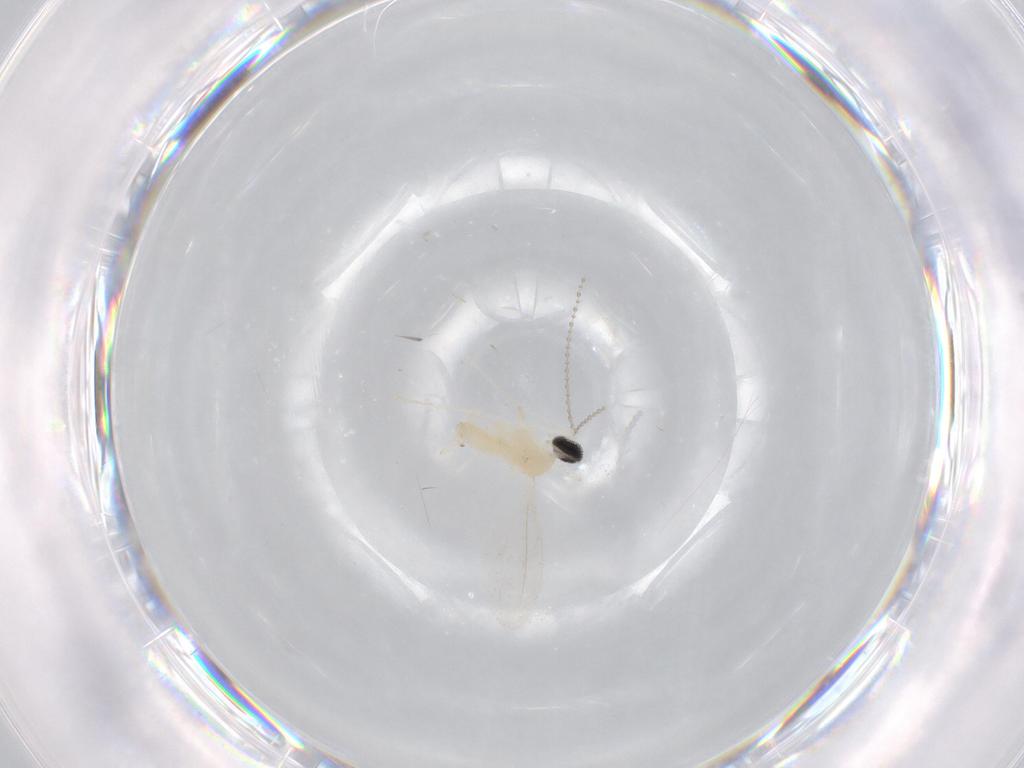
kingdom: Animalia
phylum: Arthropoda
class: Insecta
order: Diptera
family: Cecidomyiidae
